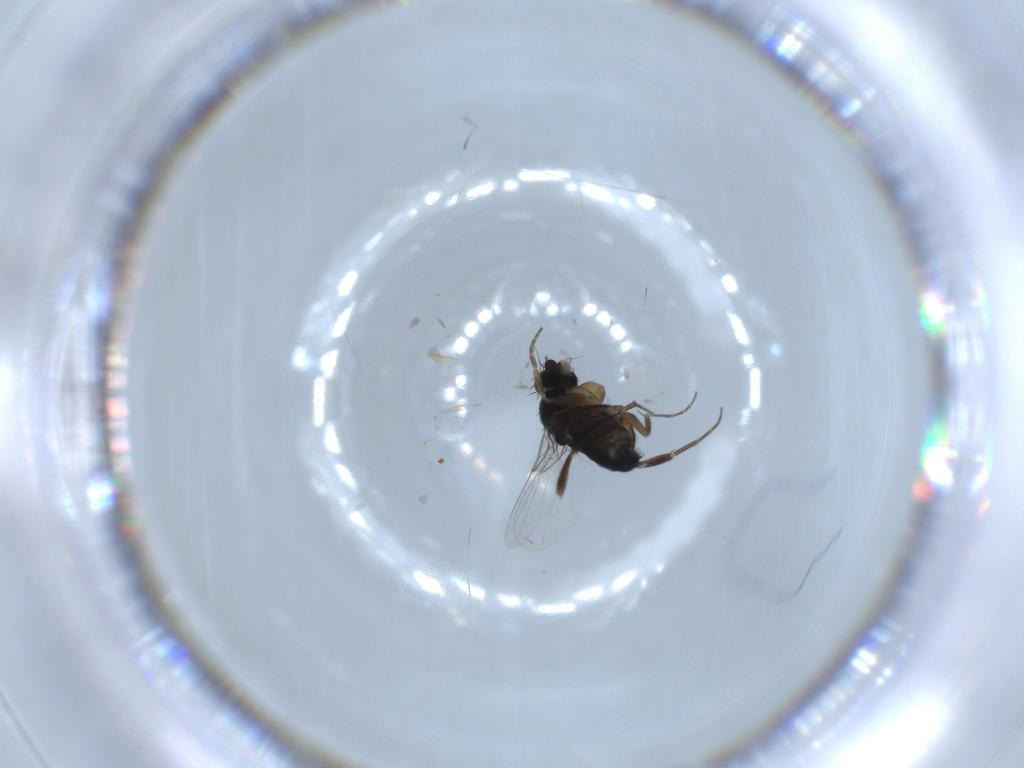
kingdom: Animalia
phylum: Arthropoda
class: Insecta
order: Diptera
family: Phoridae
